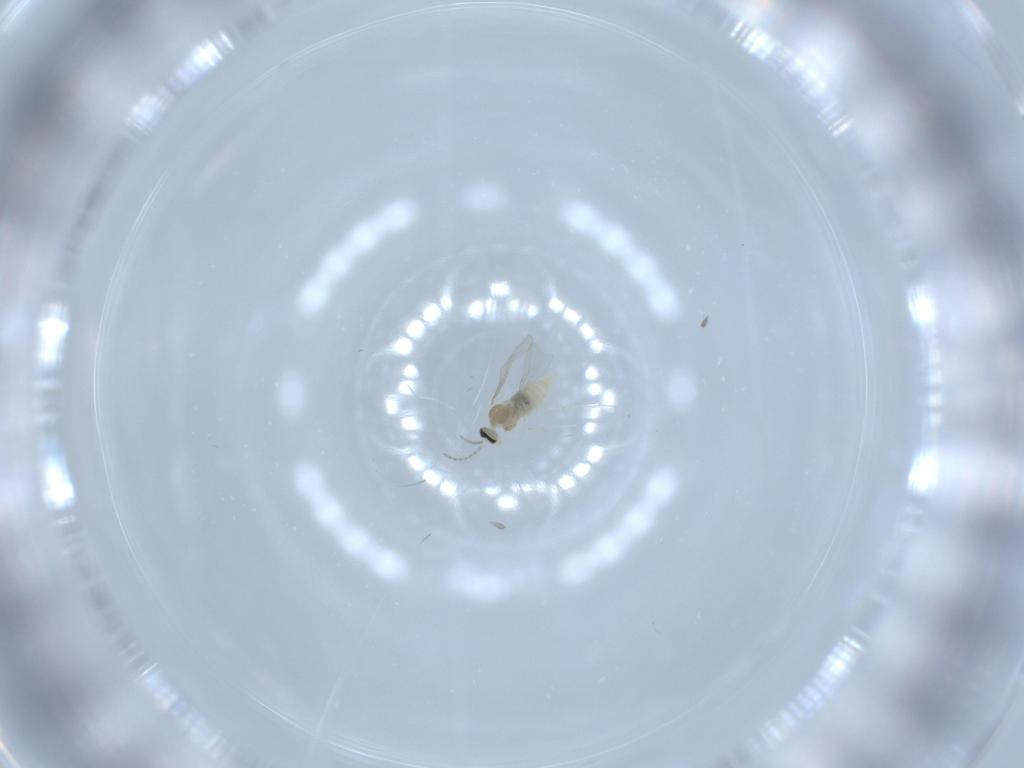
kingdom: Animalia
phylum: Arthropoda
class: Insecta
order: Diptera
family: Cecidomyiidae
